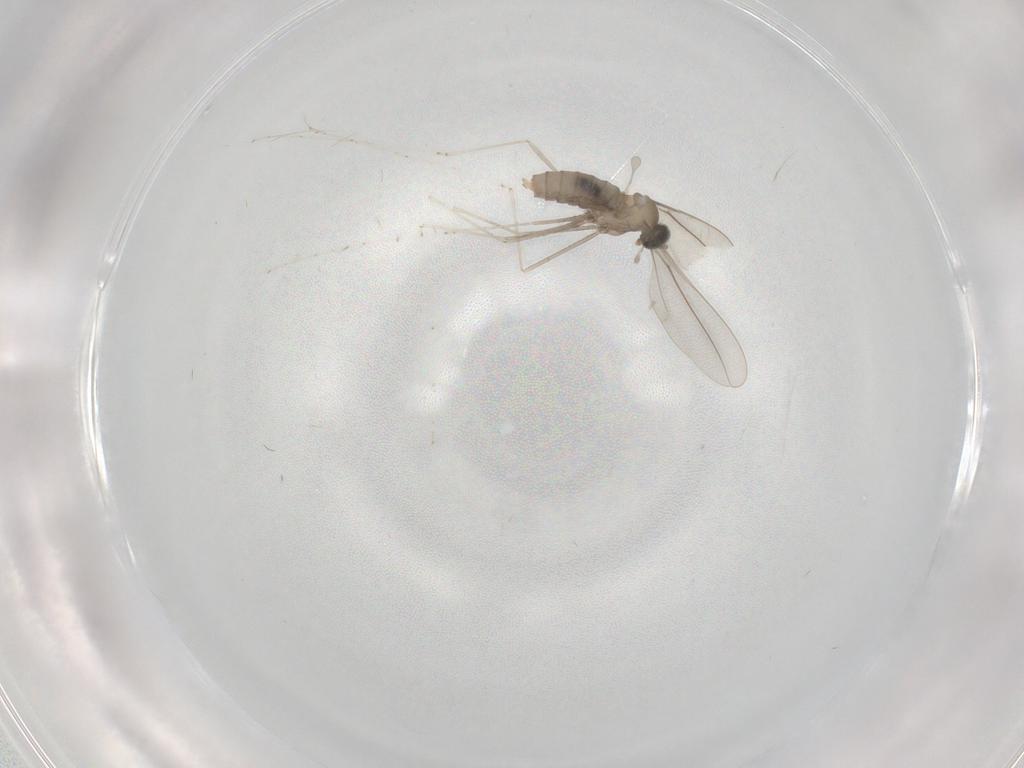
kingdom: Animalia
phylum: Arthropoda
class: Insecta
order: Diptera
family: Cecidomyiidae
